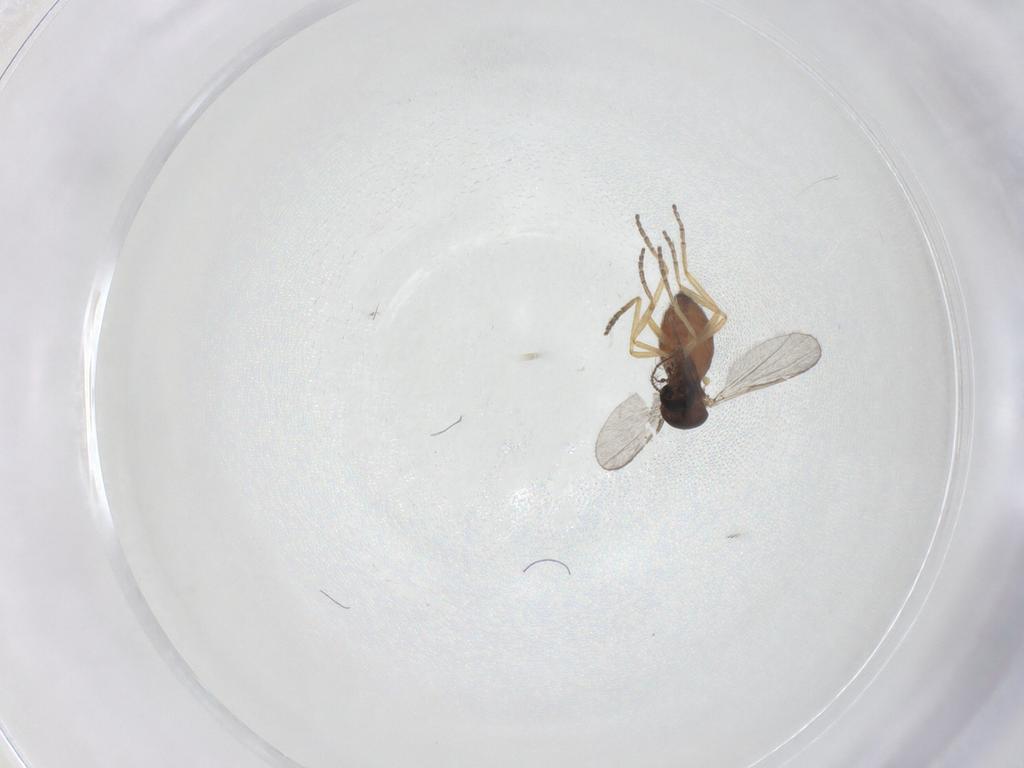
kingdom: Animalia
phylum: Arthropoda
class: Insecta
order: Diptera
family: Ceratopogonidae
